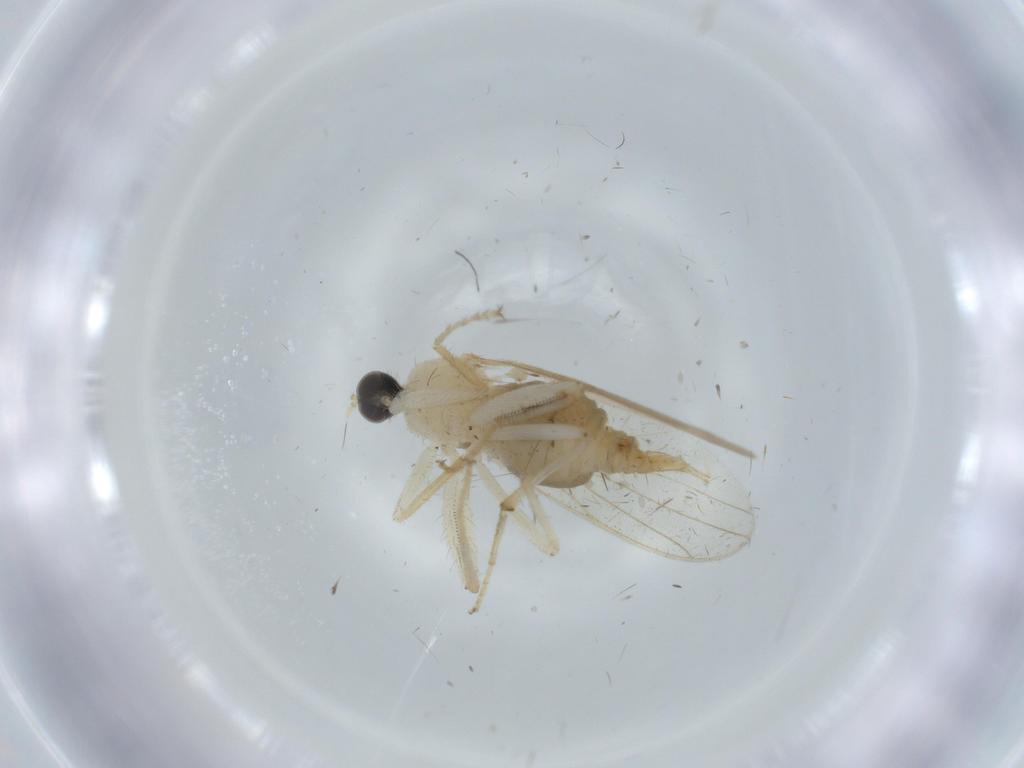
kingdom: Animalia
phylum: Arthropoda
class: Insecta
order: Diptera
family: Hybotidae
